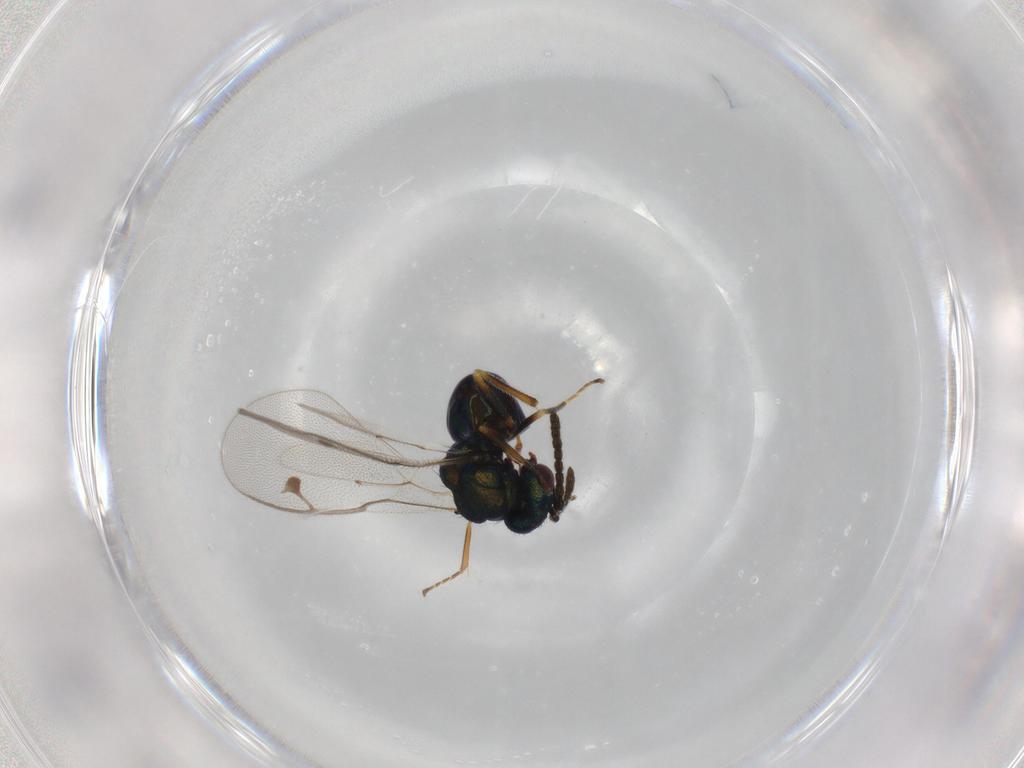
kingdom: Animalia
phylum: Arthropoda
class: Insecta
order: Hymenoptera
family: Pteromalidae
